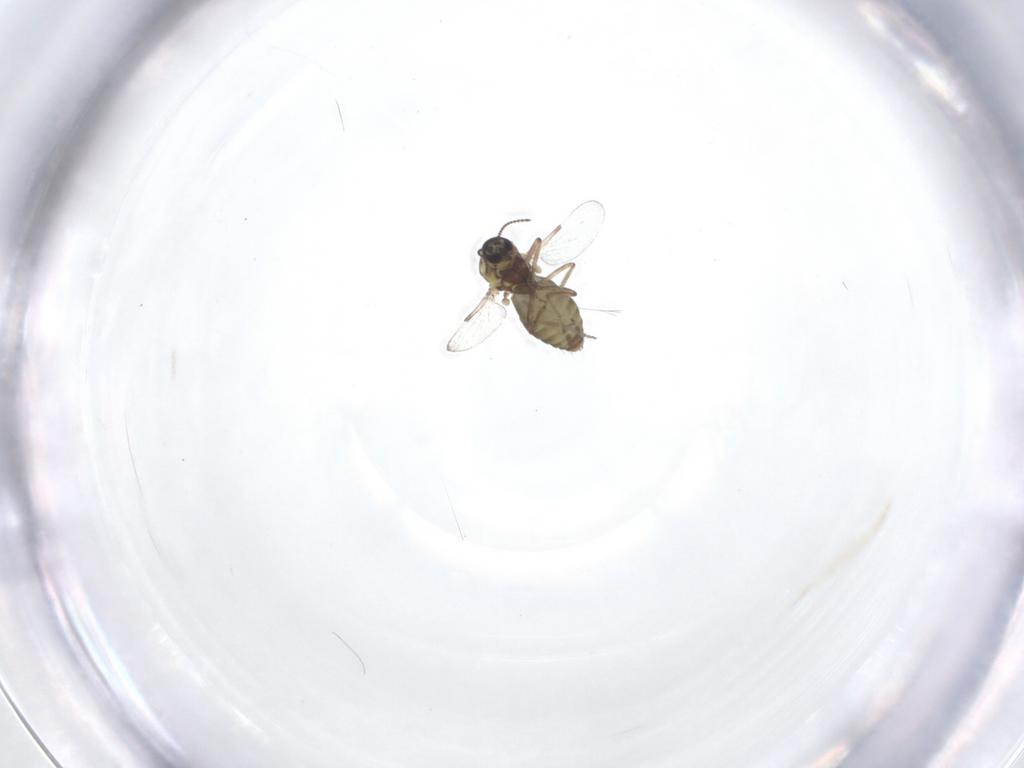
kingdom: Animalia
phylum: Arthropoda
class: Insecta
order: Diptera
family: Ceratopogonidae
